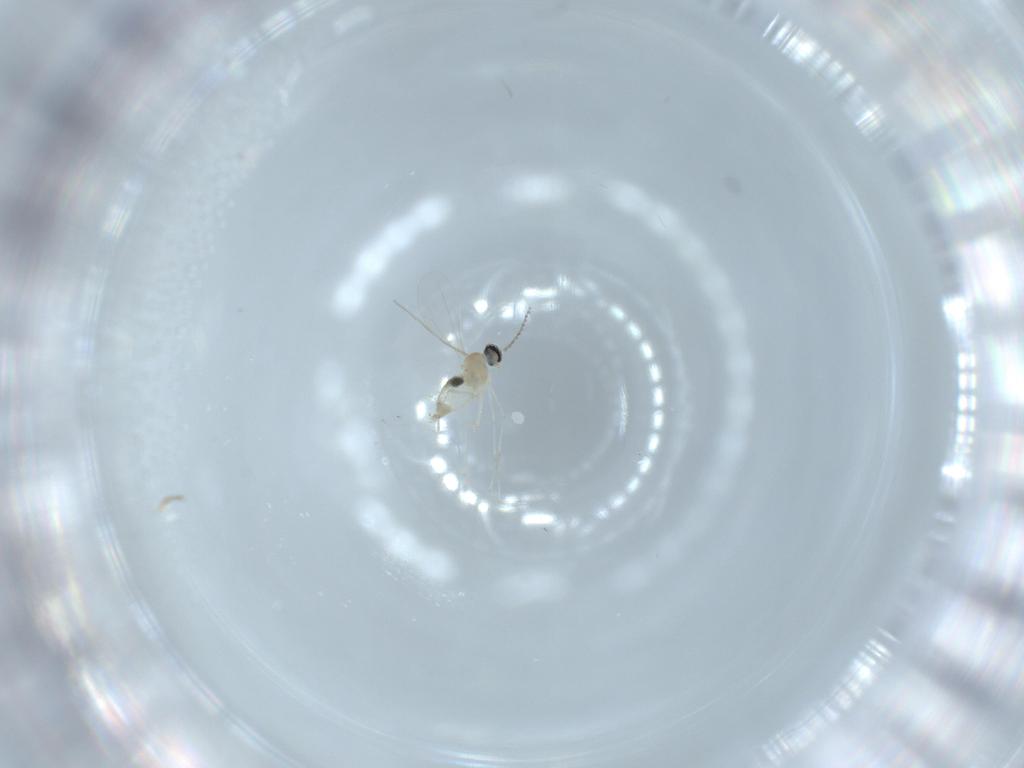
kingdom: Animalia
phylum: Arthropoda
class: Insecta
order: Diptera
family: Cecidomyiidae
